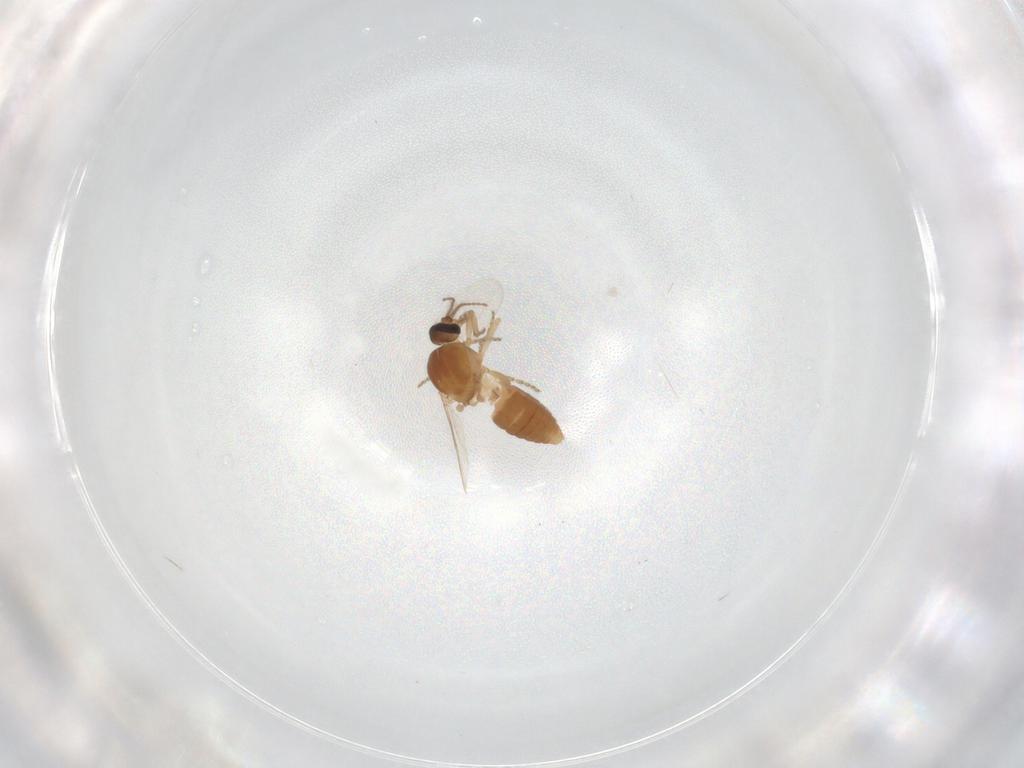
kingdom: Animalia
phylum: Arthropoda
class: Insecta
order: Diptera
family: Ceratopogonidae
